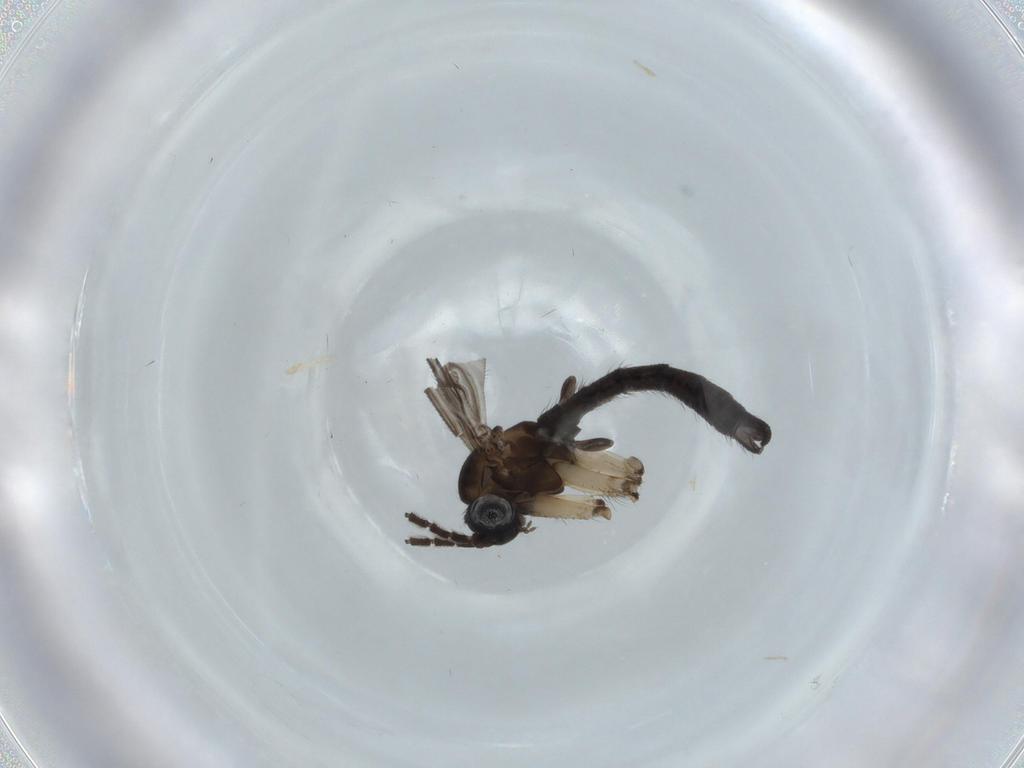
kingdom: Animalia
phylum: Arthropoda
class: Insecta
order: Diptera
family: Sciaridae
